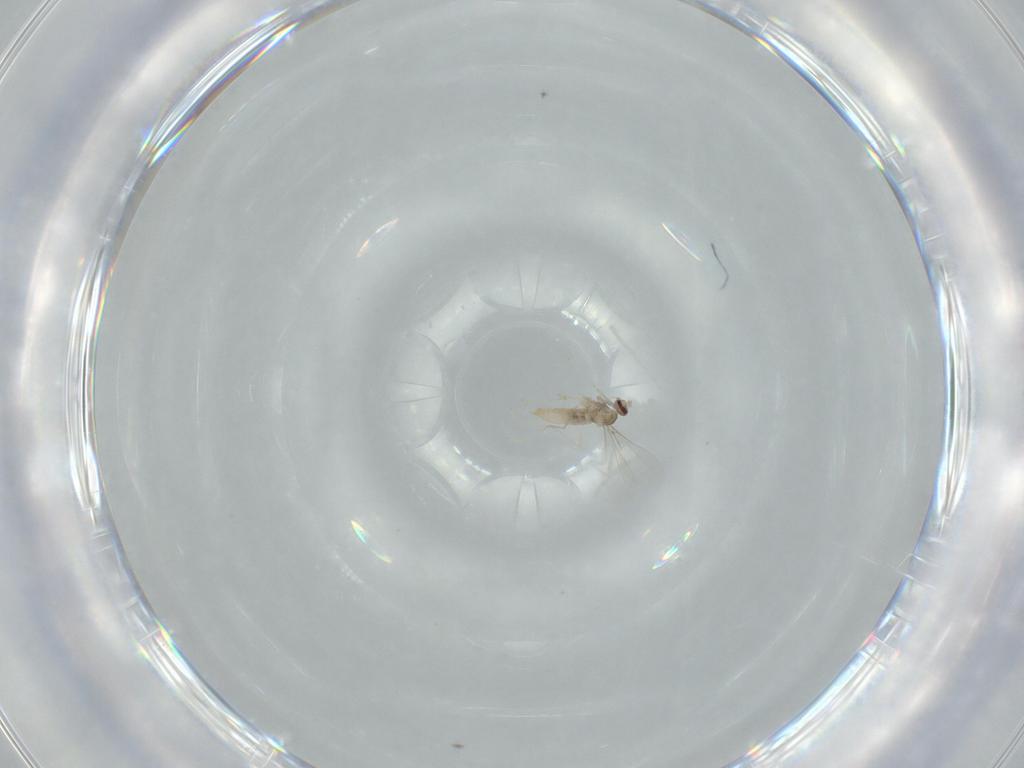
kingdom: Animalia
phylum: Arthropoda
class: Insecta
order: Diptera
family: Cecidomyiidae
